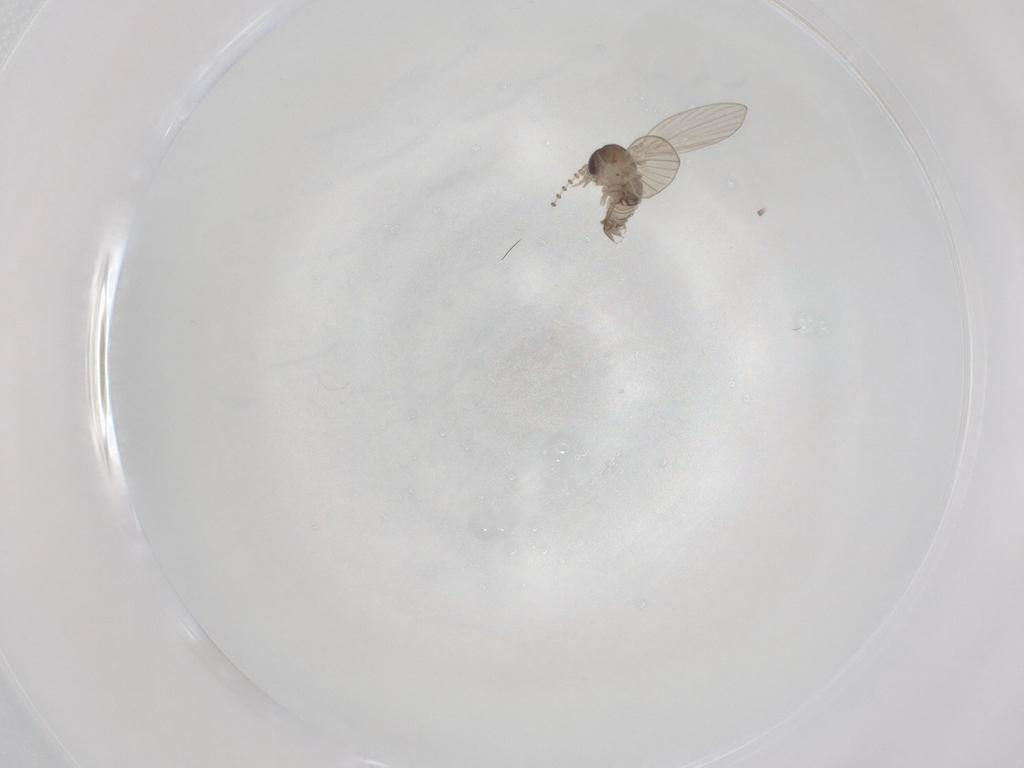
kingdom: Animalia
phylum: Arthropoda
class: Insecta
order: Diptera
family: Psychodidae
